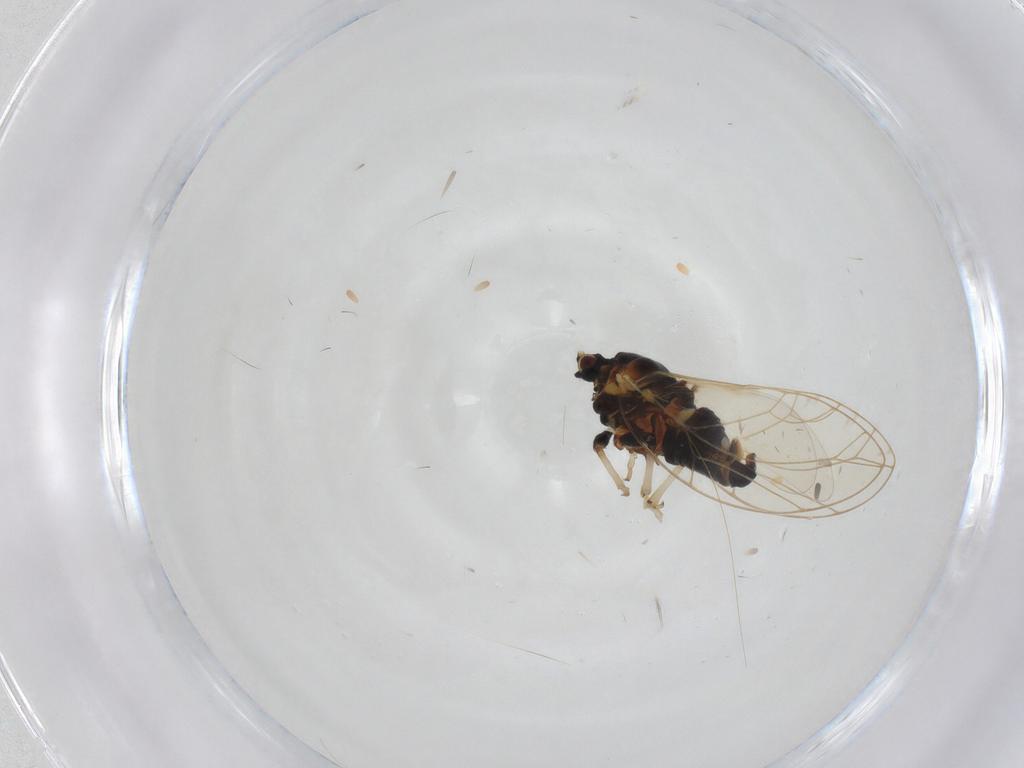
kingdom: Animalia
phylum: Arthropoda
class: Insecta
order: Hemiptera
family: Triozidae
